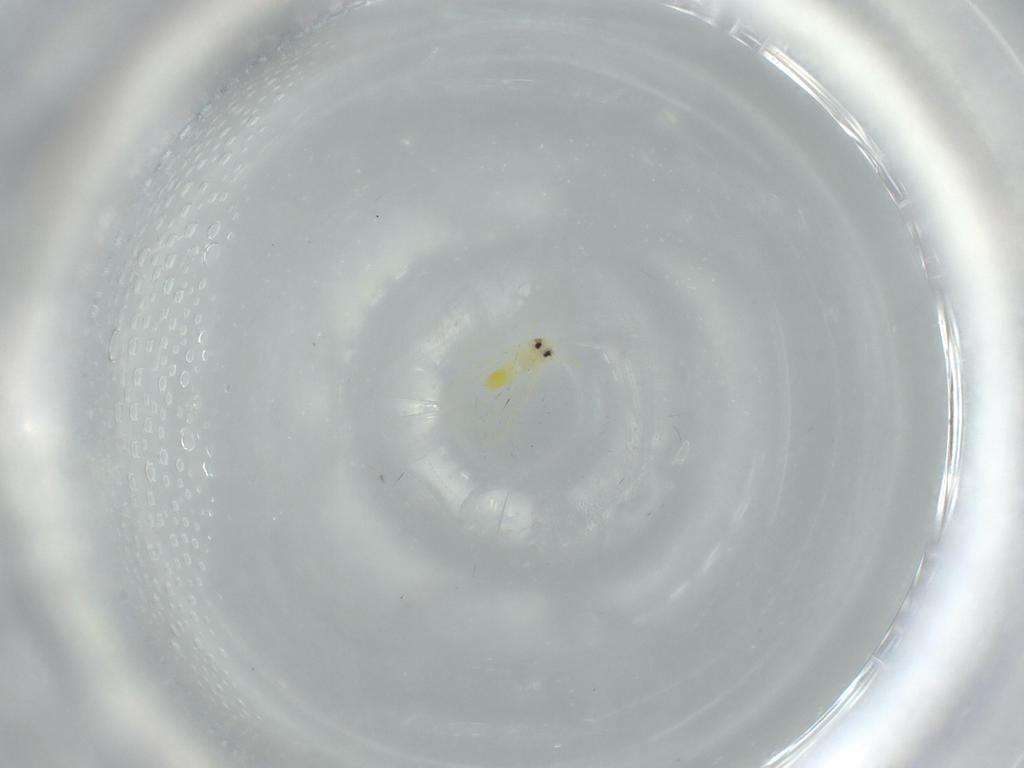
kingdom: Animalia
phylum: Arthropoda
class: Insecta
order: Hemiptera
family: Aleyrodidae
